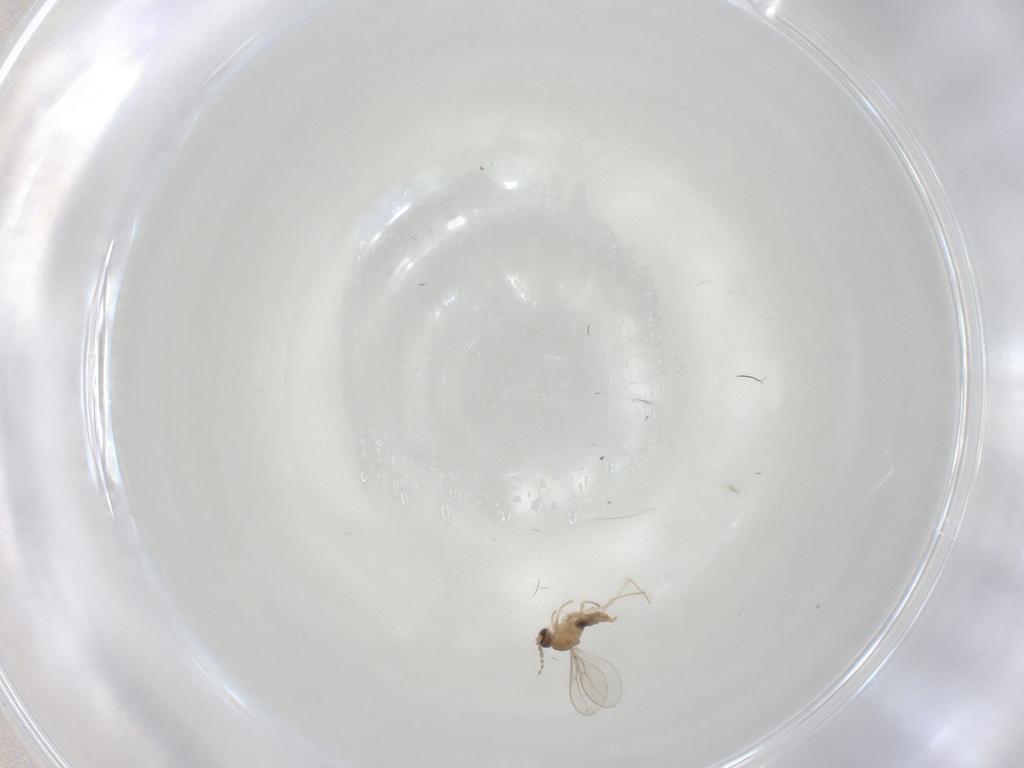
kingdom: Animalia
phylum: Arthropoda
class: Insecta
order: Diptera
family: Cecidomyiidae
